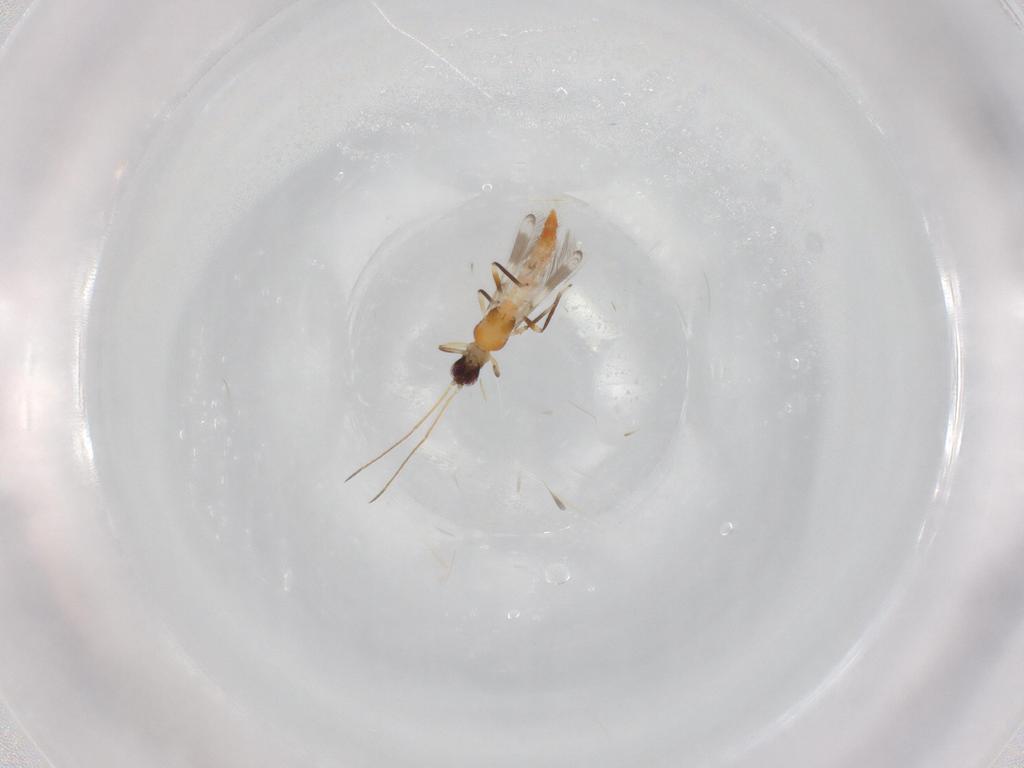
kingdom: Animalia
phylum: Arthropoda
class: Insecta
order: Thysanoptera
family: Aeolothripidae
